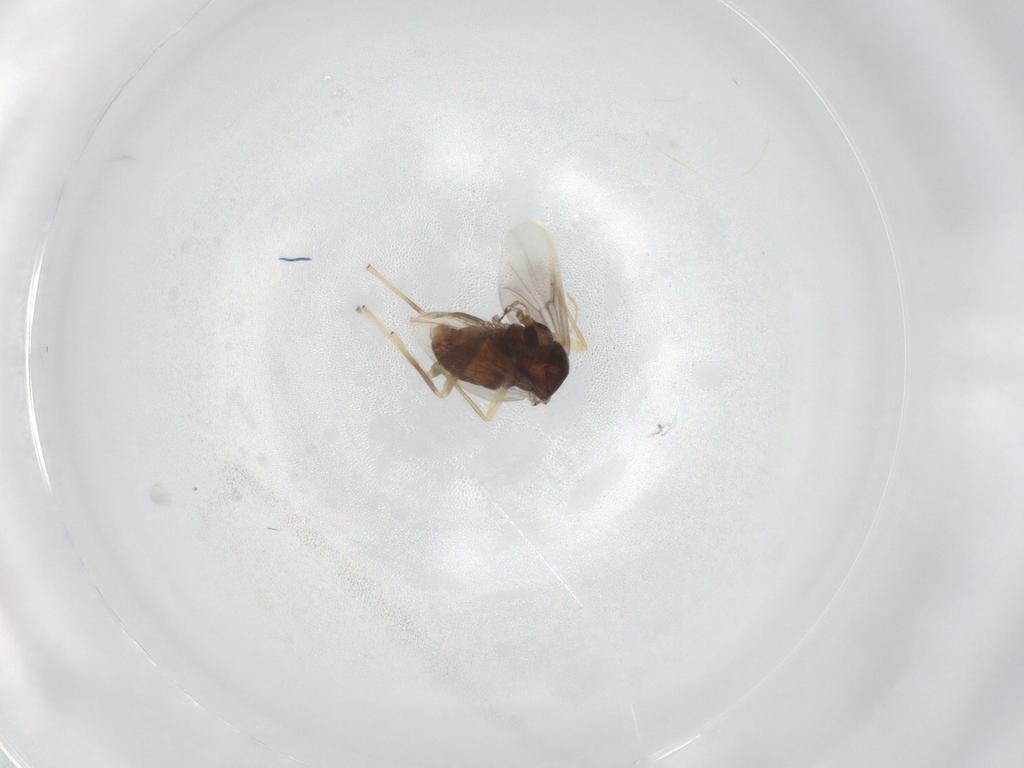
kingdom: Animalia
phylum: Arthropoda
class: Insecta
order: Diptera
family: Chironomidae
